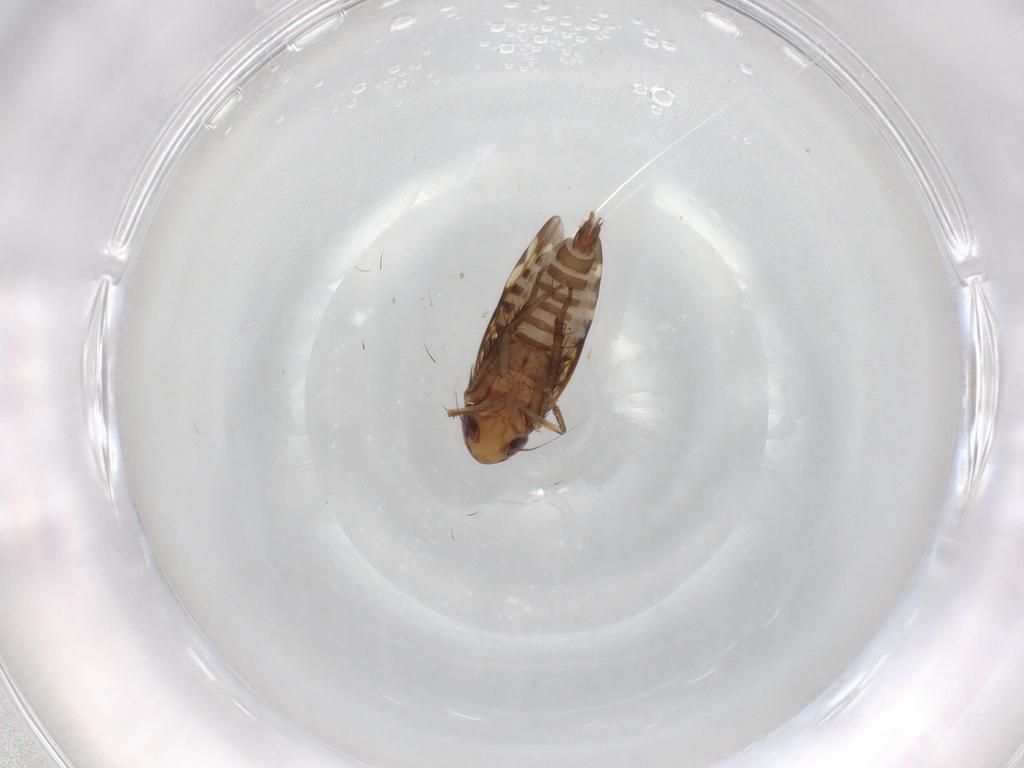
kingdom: Animalia
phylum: Arthropoda
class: Insecta
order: Hemiptera
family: Cicadellidae
